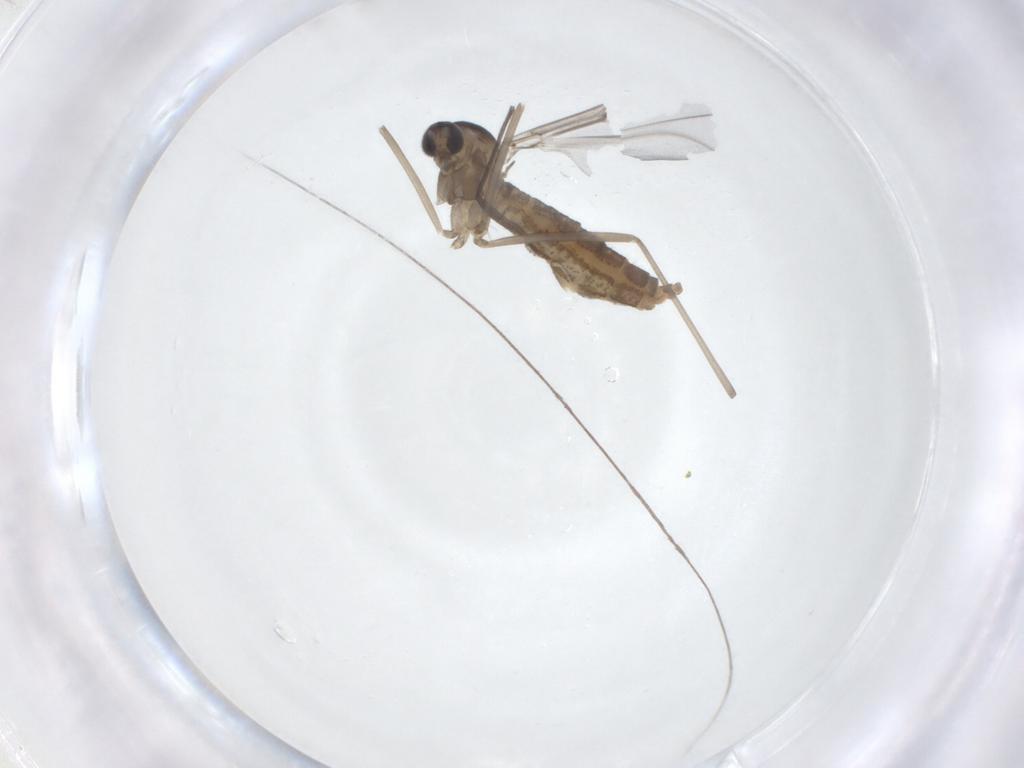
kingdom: Animalia
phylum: Arthropoda
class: Insecta
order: Diptera
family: Cecidomyiidae
